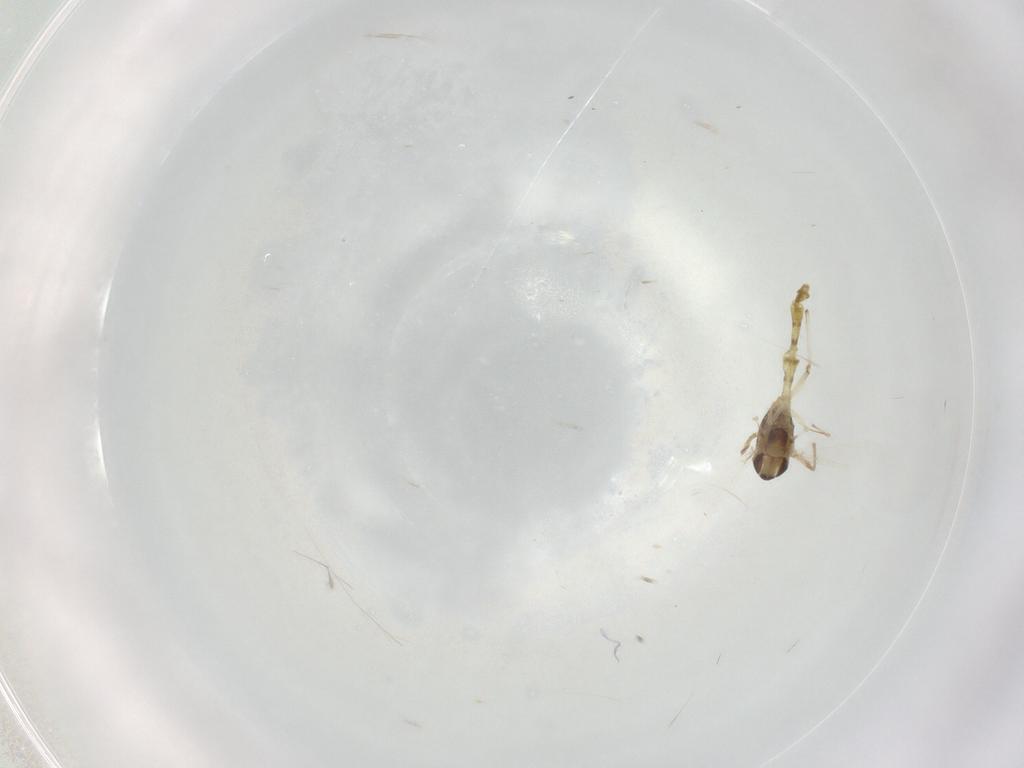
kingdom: Animalia
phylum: Arthropoda
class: Insecta
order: Diptera
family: Chironomidae
